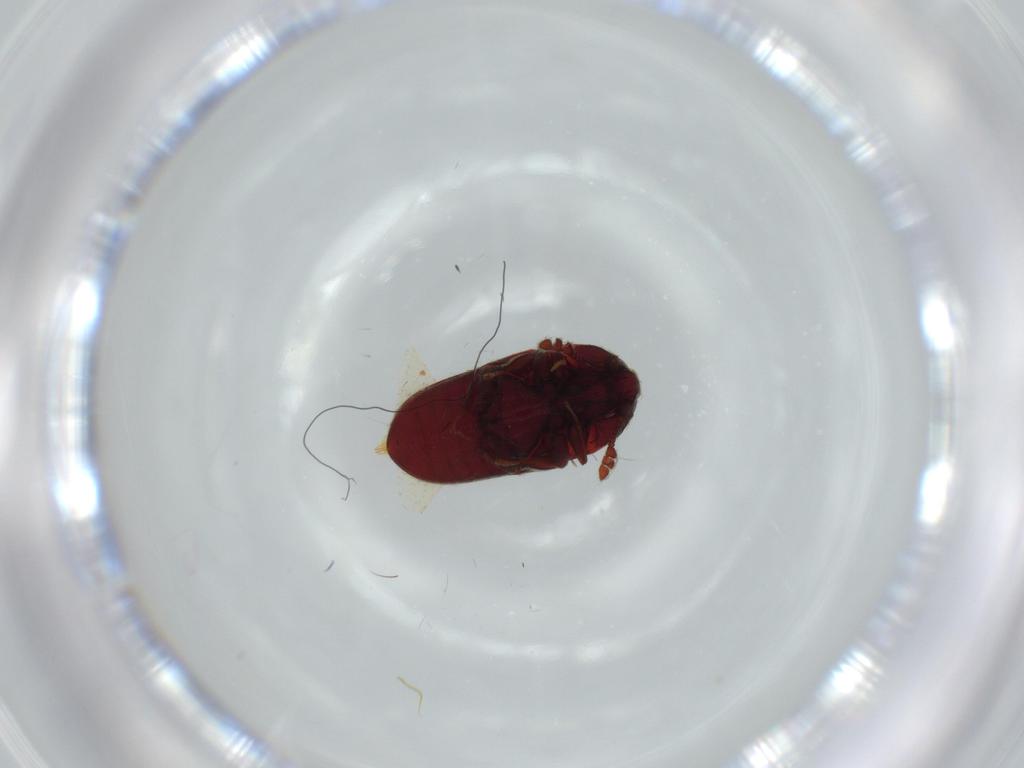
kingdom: Animalia
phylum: Arthropoda
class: Insecta
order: Coleoptera
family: Throscidae
